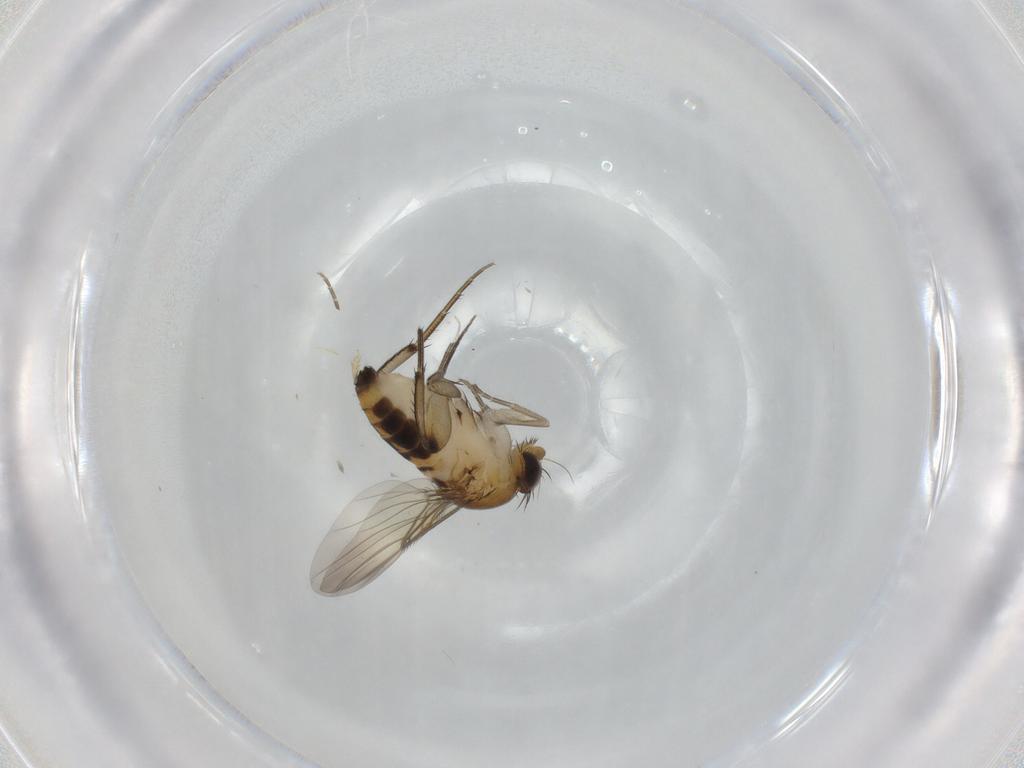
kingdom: Animalia
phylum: Arthropoda
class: Insecta
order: Diptera
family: Phoridae
